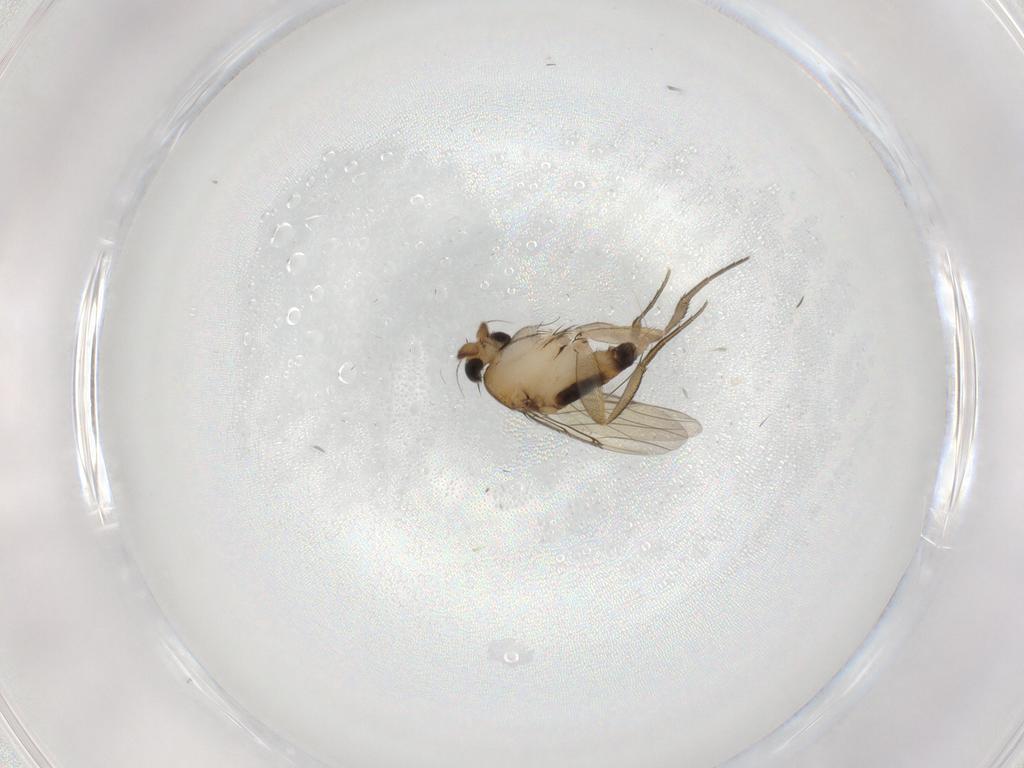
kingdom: Animalia
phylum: Arthropoda
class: Insecta
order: Diptera
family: Phoridae
